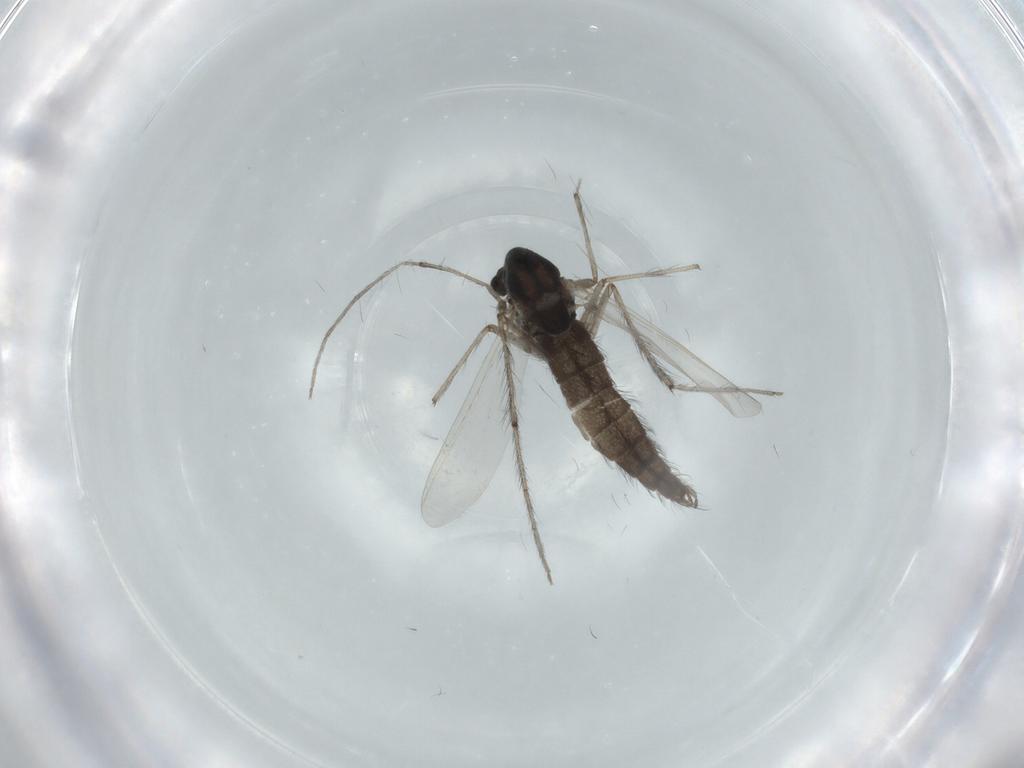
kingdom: Animalia
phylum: Arthropoda
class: Insecta
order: Diptera
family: Chironomidae
